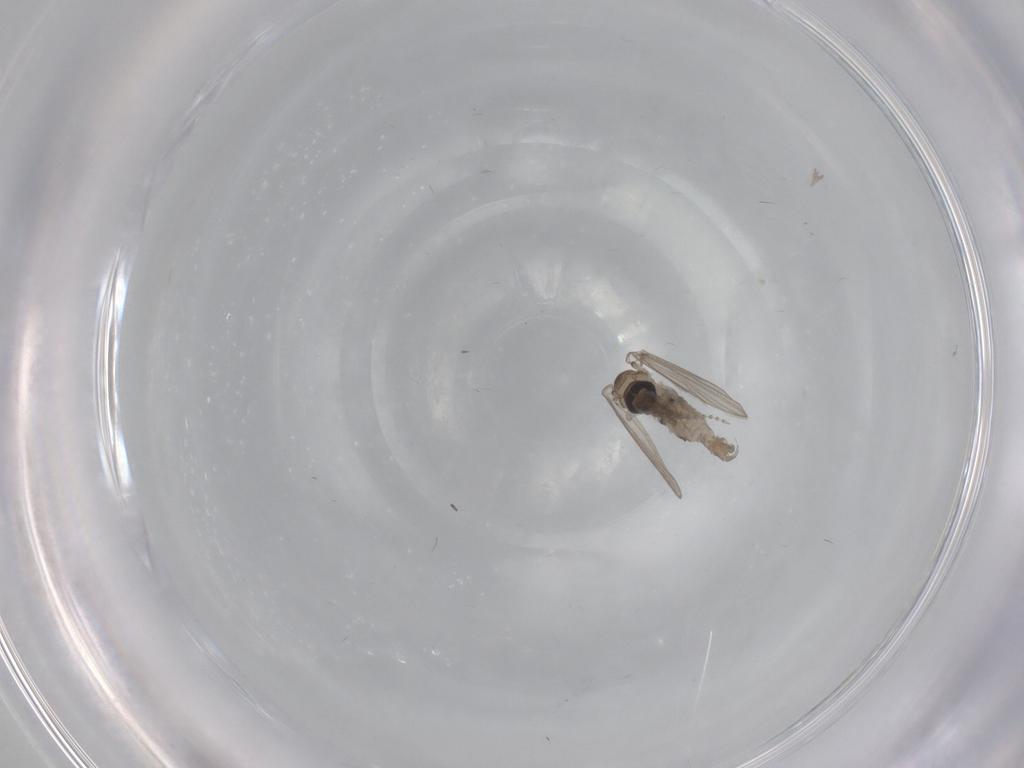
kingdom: Animalia
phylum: Arthropoda
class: Insecta
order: Diptera
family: Psychodidae
